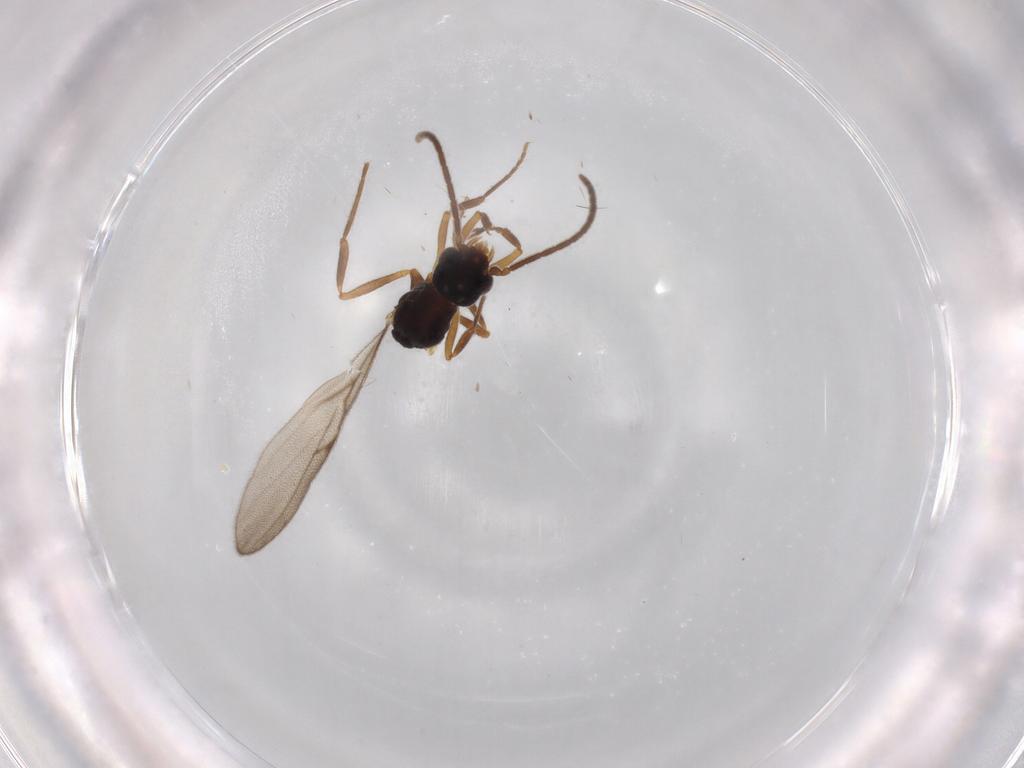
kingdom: Animalia
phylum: Arthropoda
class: Insecta
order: Hymenoptera
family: Formicidae
